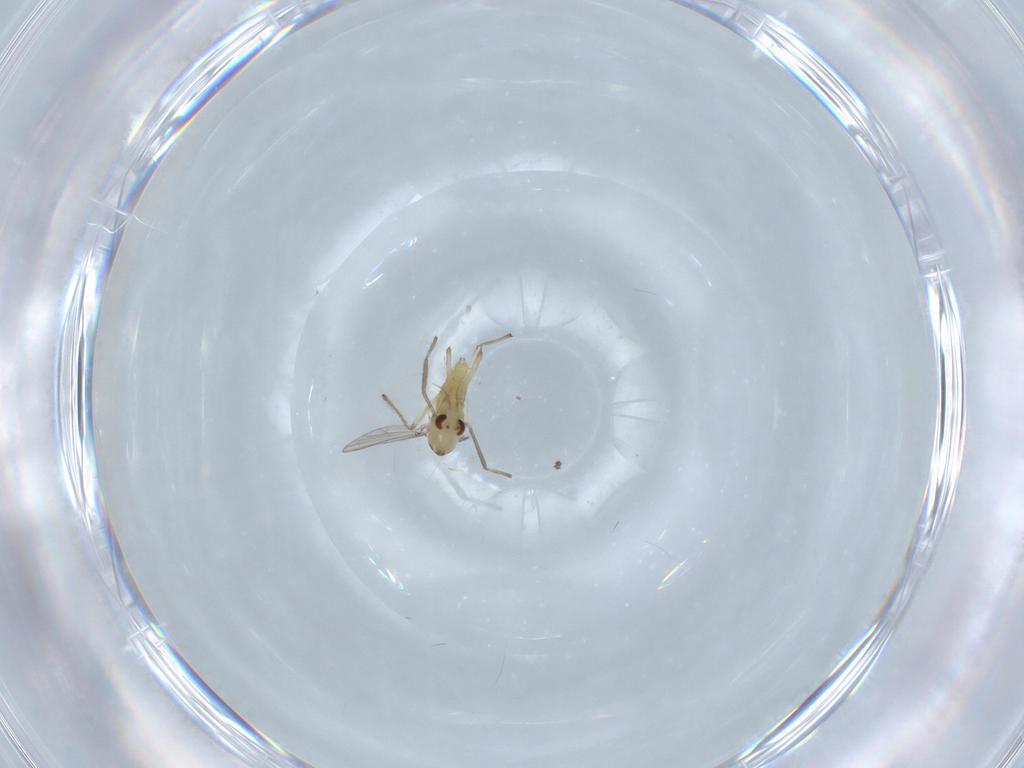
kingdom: Animalia
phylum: Arthropoda
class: Insecta
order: Diptera
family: Chironomidae
